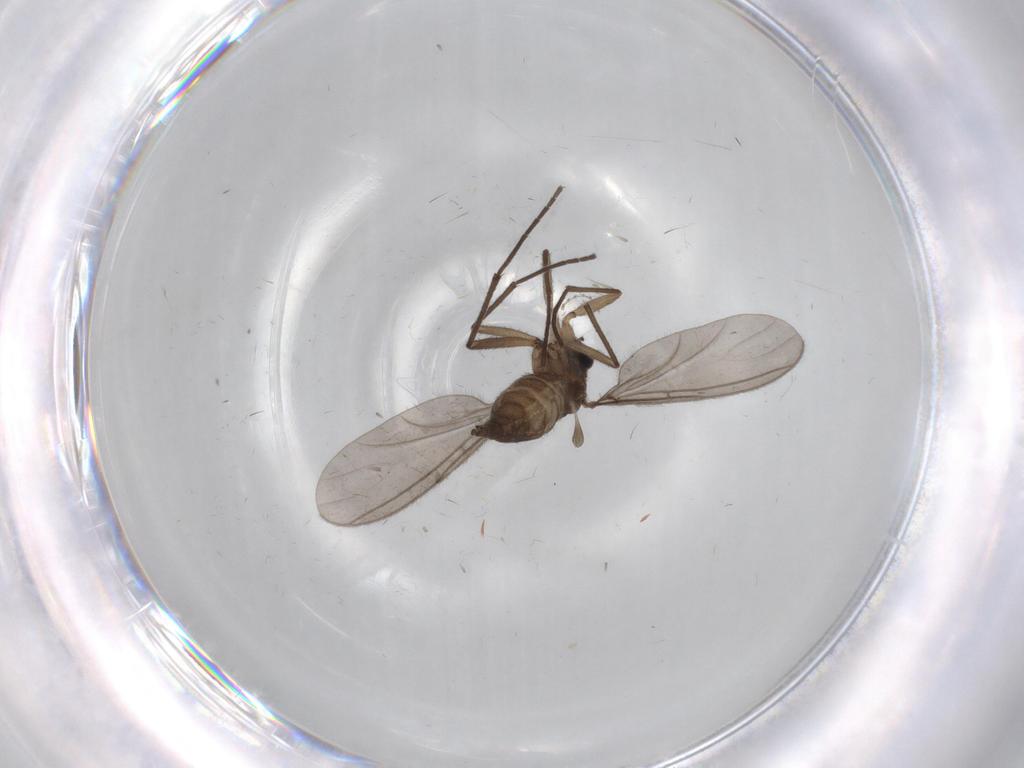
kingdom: Animalia
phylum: Arthropoda
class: Insecta
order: Diptera
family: Cecidomyiidae
